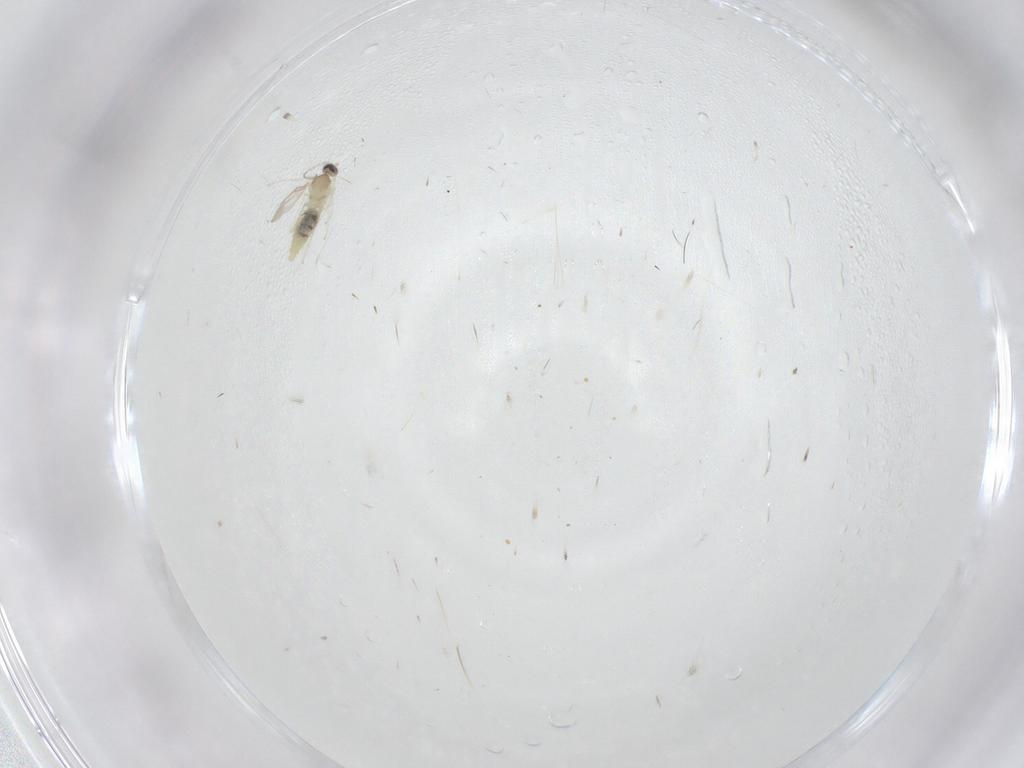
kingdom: Animalia
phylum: Arthropoda
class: Insecta
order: Diptera
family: Cecidomyiidae
